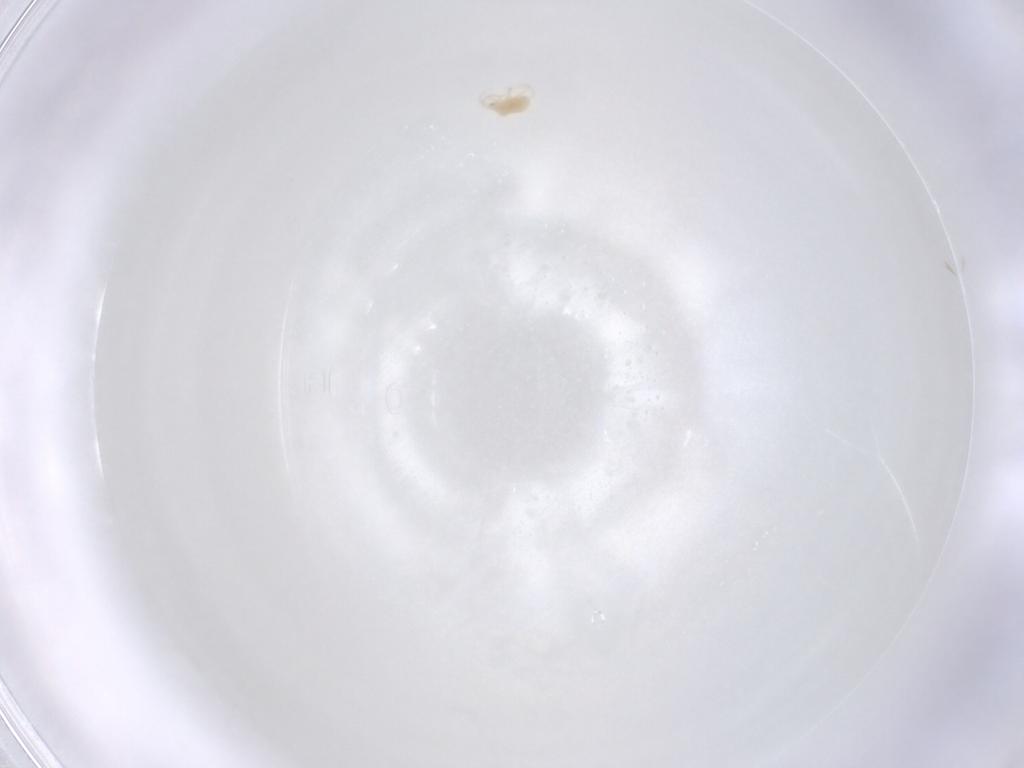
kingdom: Animalia
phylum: Arthropoda
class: Arachnida
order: Trombidiformes
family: Tetranychidae
